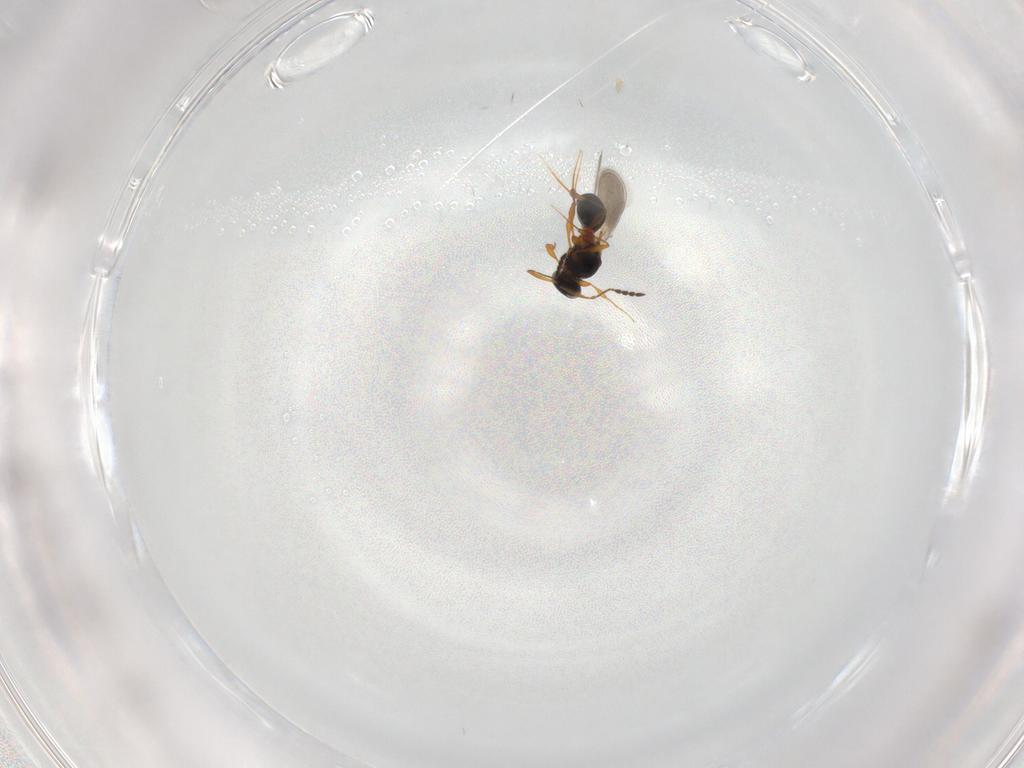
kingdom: Animalia
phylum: Arthropoda
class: Insecta
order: Hymenoptera
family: Platygastridae
